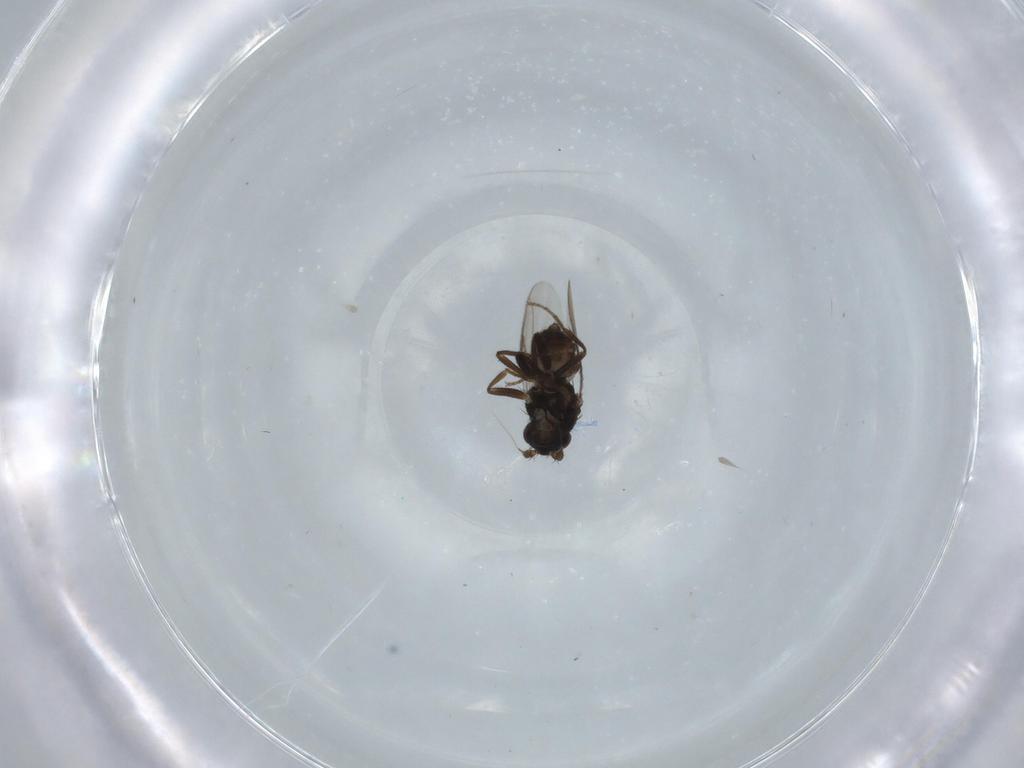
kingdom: Animalia
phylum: Arthropoda
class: Insecta
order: Diptera
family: Sphaeroceridae
